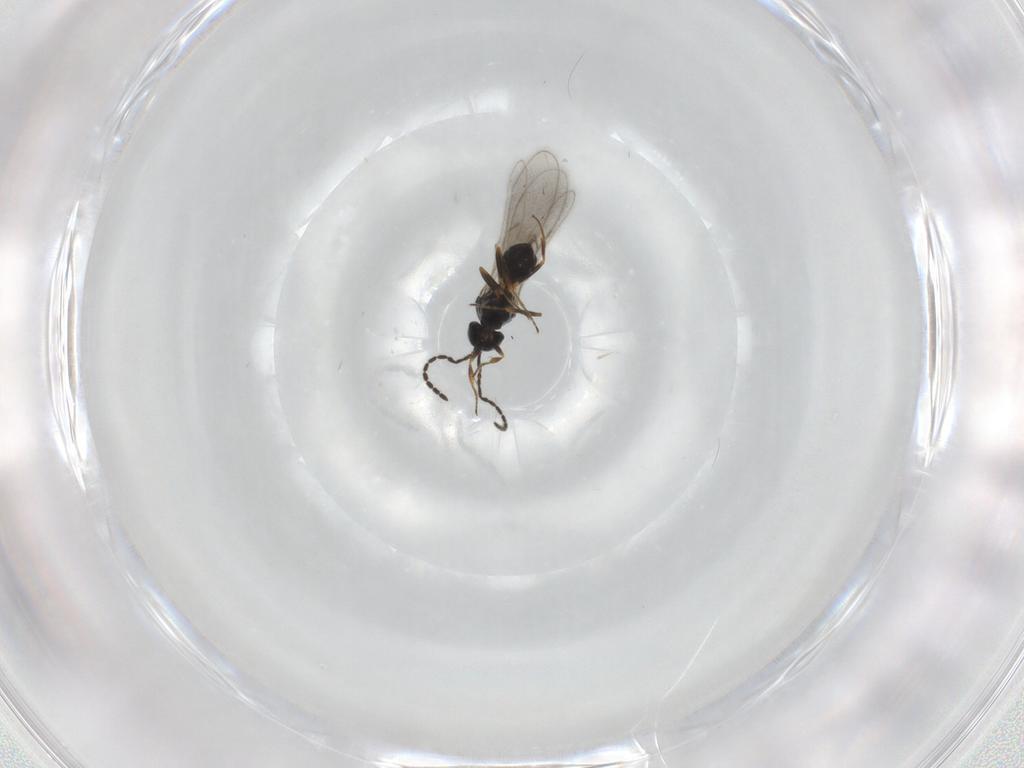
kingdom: Animalia
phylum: Arthropoda
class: Insecta
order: Hymenoptera
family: Scelionidae
